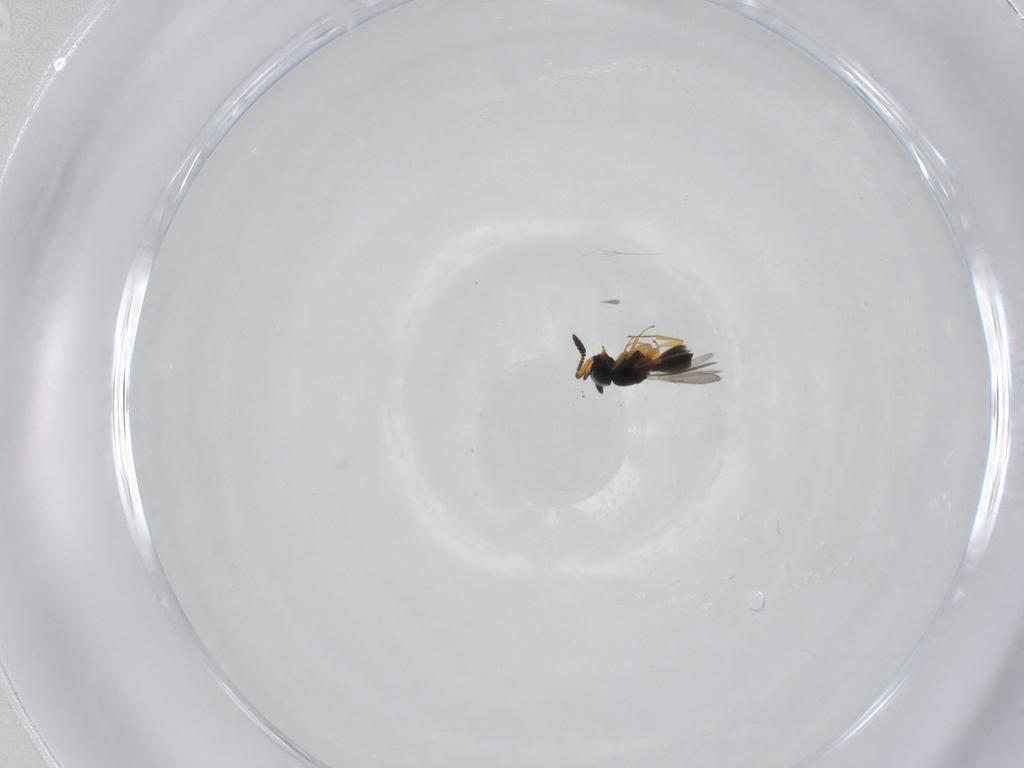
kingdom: Animalia
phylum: Arthropoda
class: Insecta
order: Hymenoptera
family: Scelionidae
